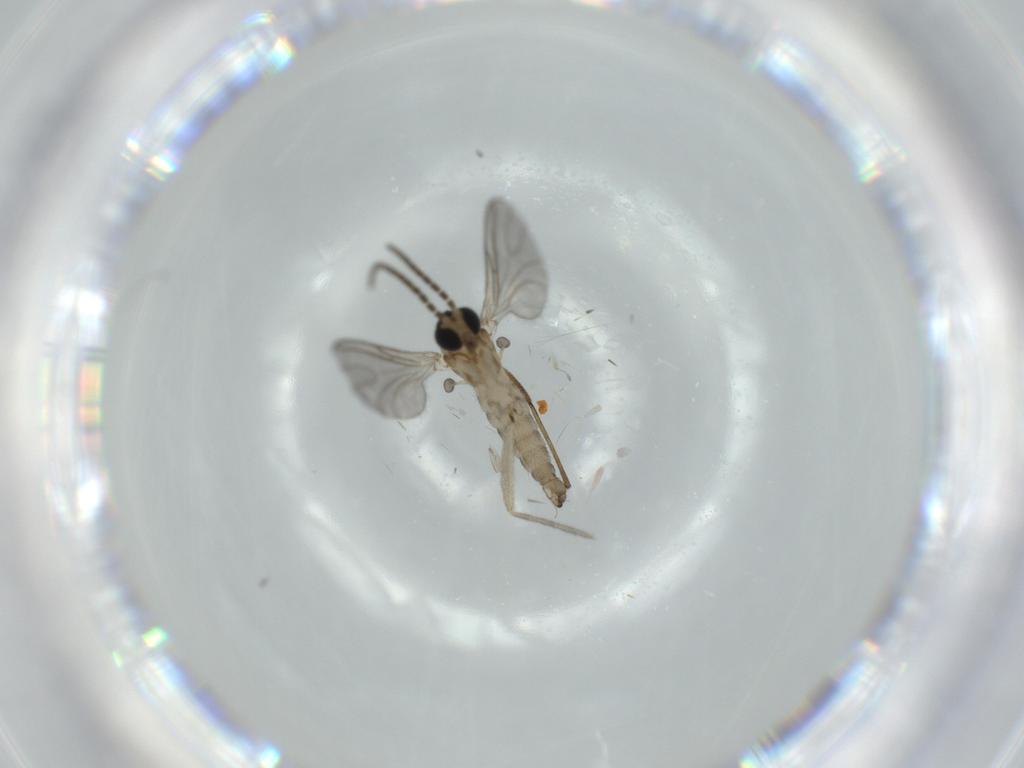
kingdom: Animalia
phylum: Arthropoda
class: Insecta
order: Diptera
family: Sciaridae
